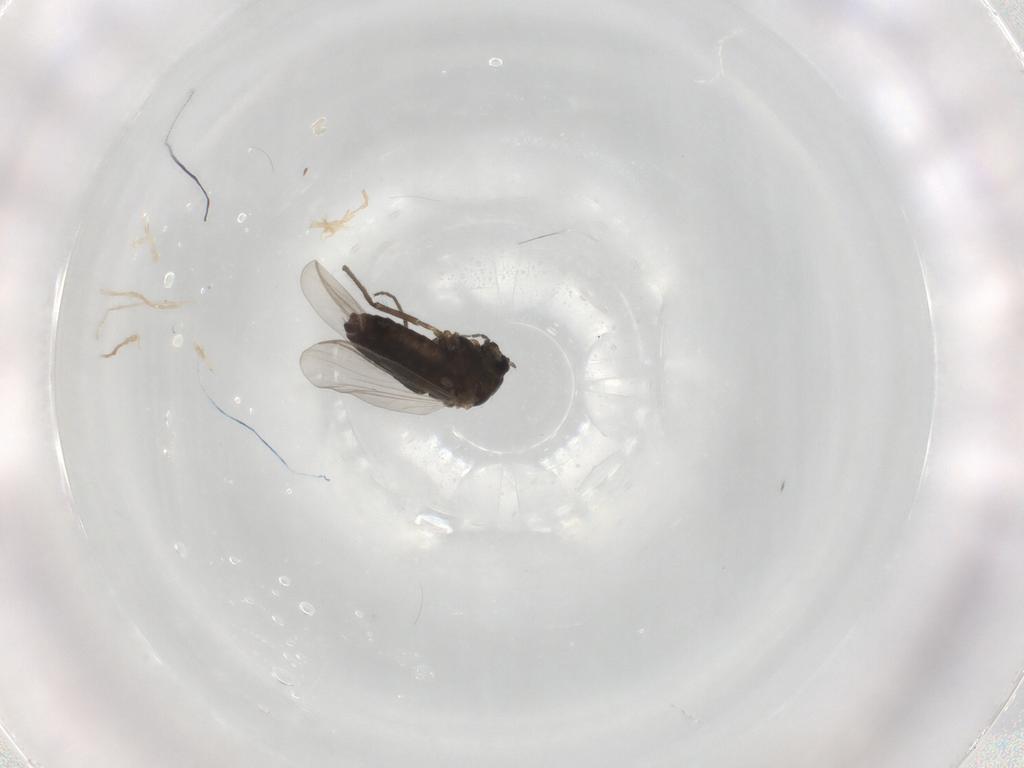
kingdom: Animalia
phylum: Arthropoda
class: Insecta
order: Diptera
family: Chironomidae
